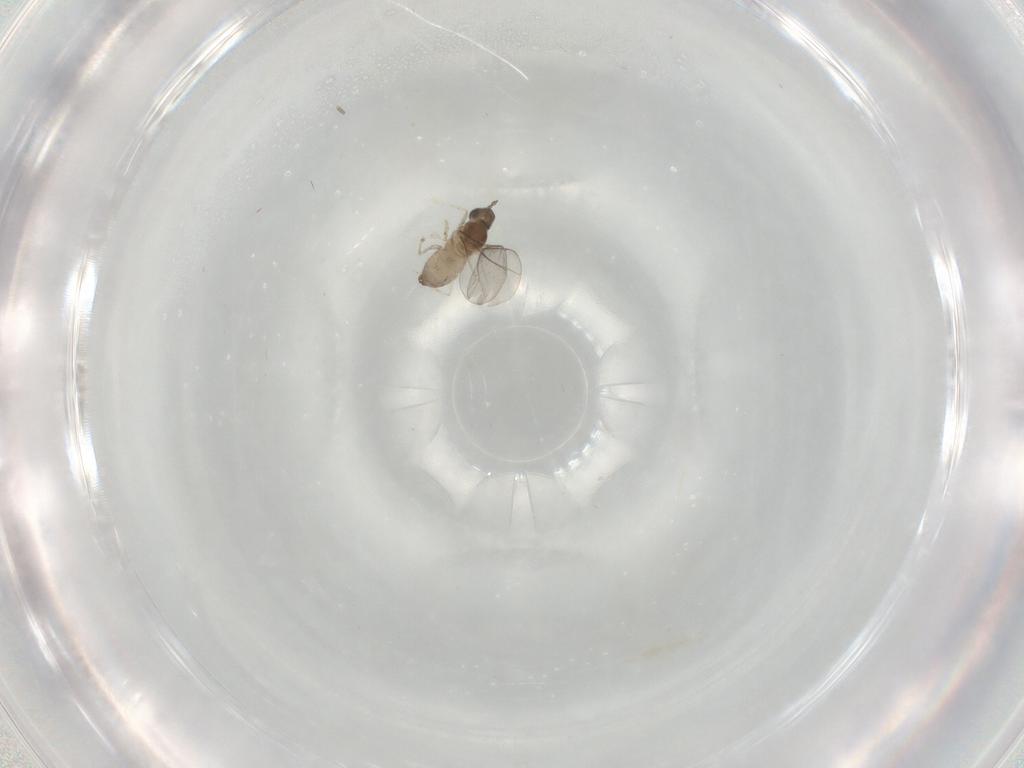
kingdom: Animalia
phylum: Arthropoda
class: Insecta
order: Diptera
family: Cecidomyiidae
